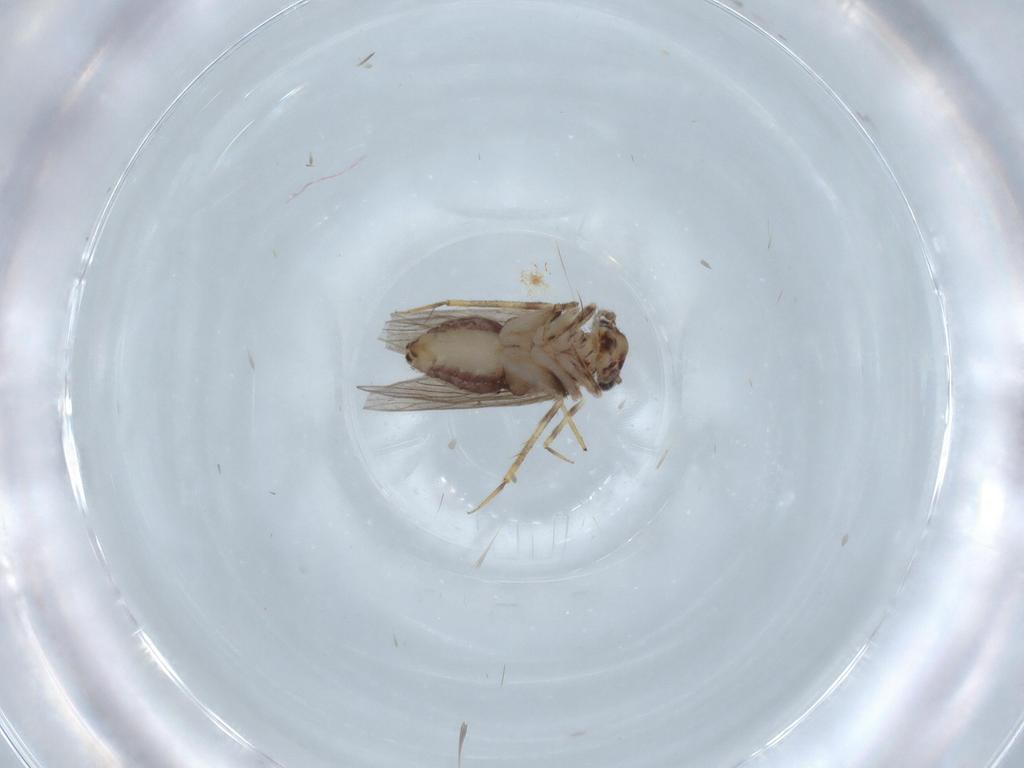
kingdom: Animalia
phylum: Arthropoda
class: Insecta
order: Psocodea
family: Lepidopsocidae
